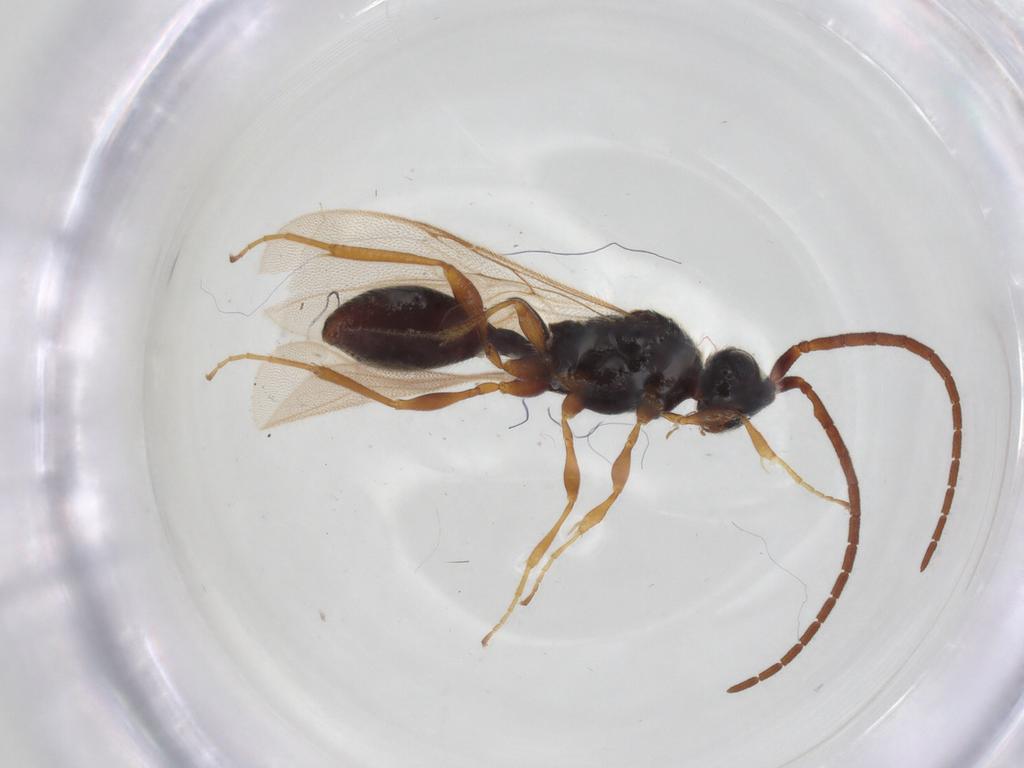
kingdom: Animalia
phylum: Arthropoda
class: Insecta
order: Hymenoptera
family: Diapriidae
